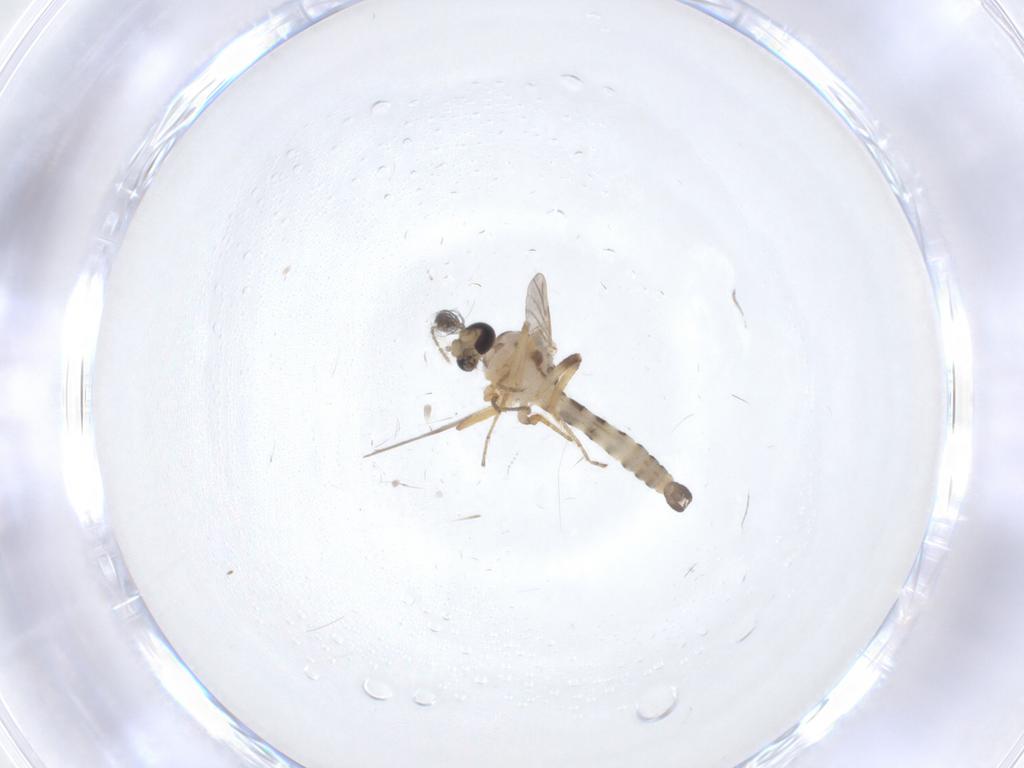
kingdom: Animalia
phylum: Arthropoda
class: Insecta
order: Diptera
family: Ceratopogonidae
